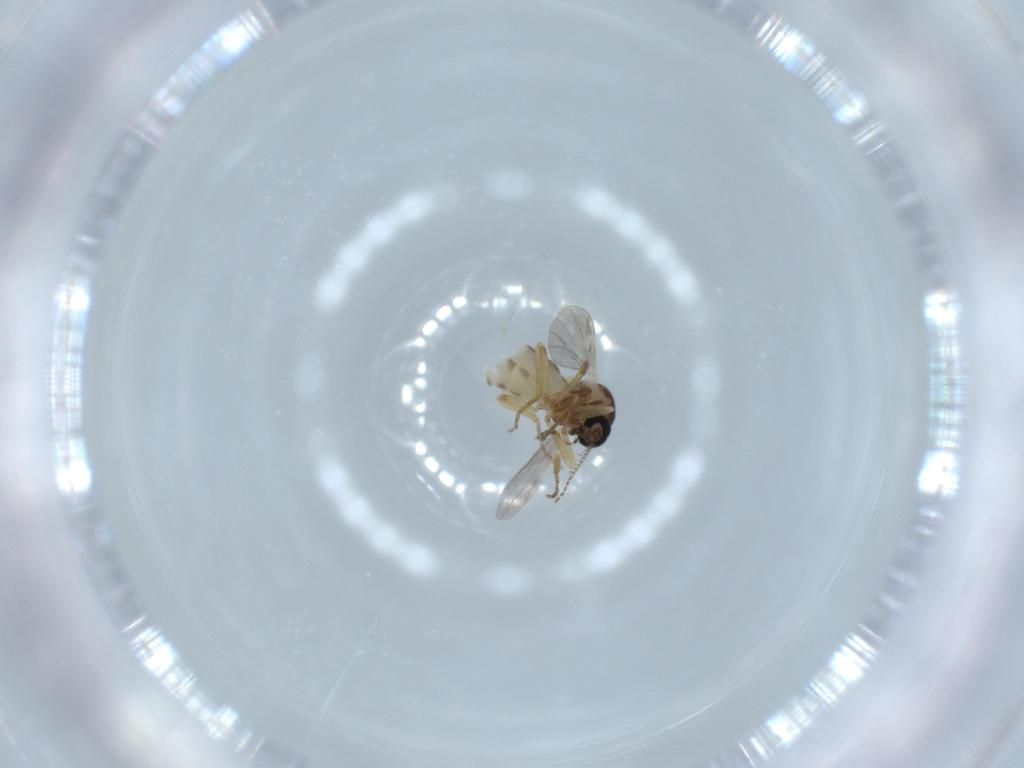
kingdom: Animalia
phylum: Arthropoda
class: Insecta
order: Diptera
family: Ceratopogonidae
